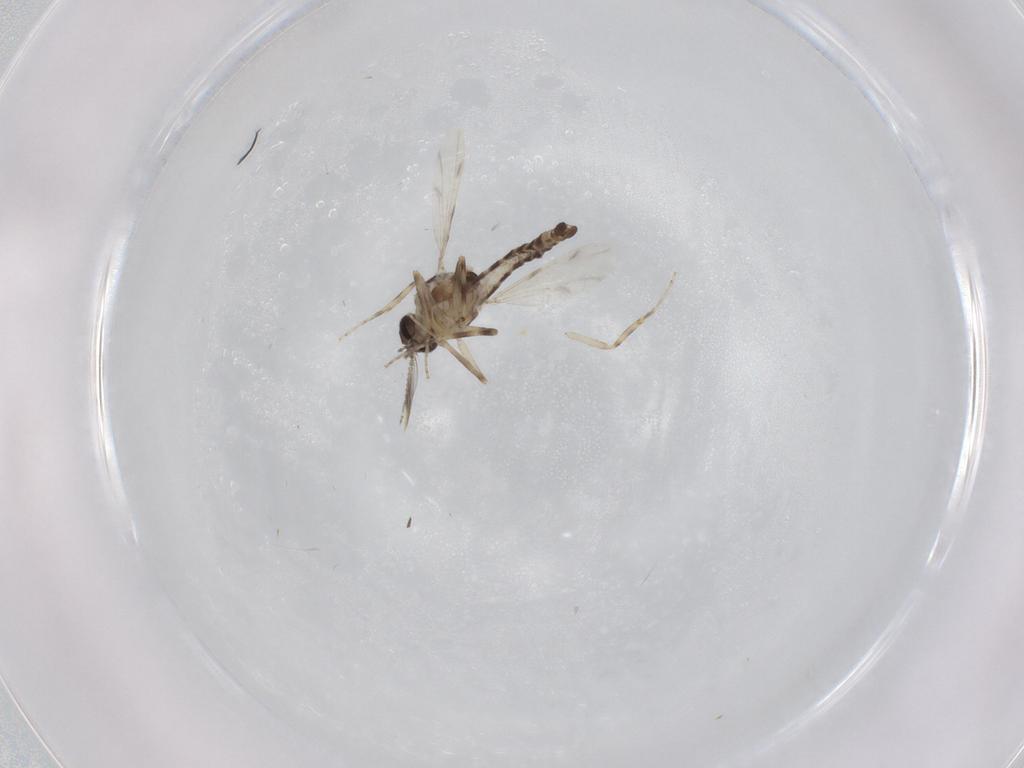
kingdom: Animalia
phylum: Arthropoda
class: Insecta
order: Diptera
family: Ceratopogonidae
